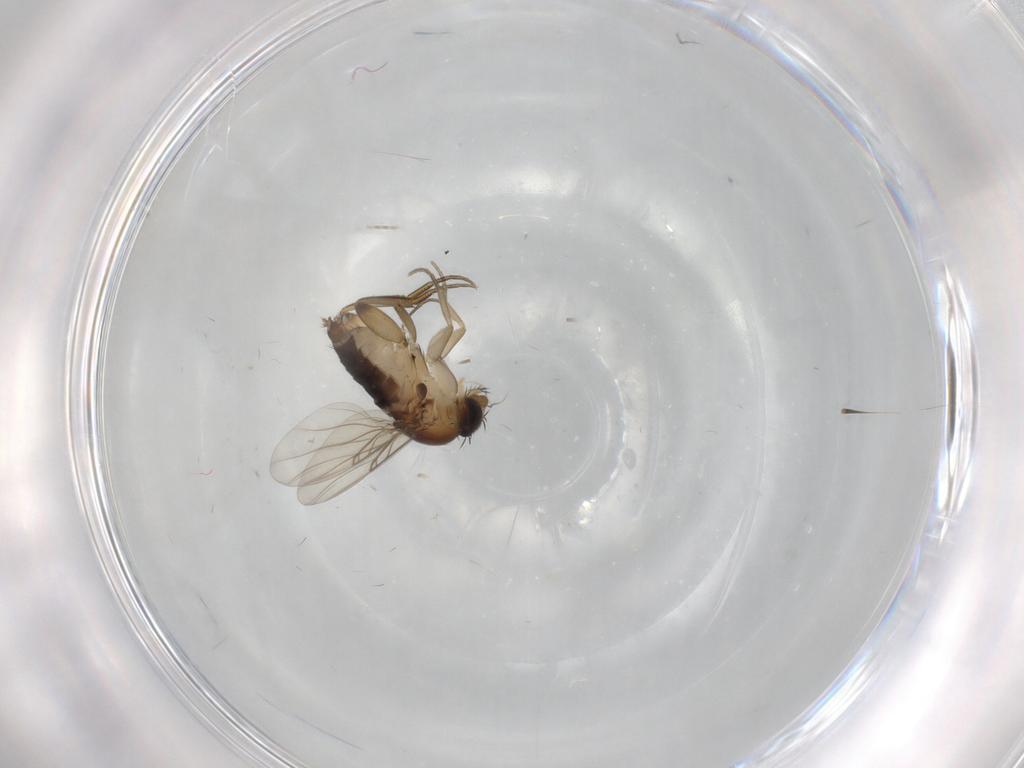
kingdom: Animalia
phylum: Arthropoda
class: Insecta
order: Diptera
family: Phoridae
